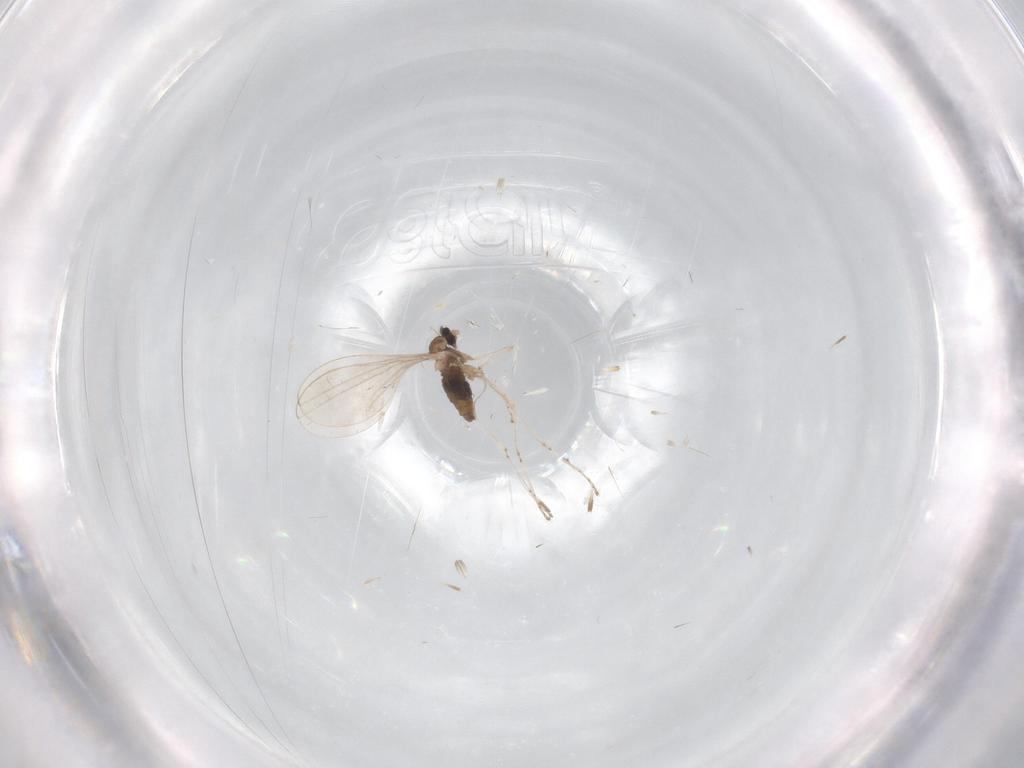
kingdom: Animalia
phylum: Arthropoda
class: Insecta
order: Diptera
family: Cecidomyiidae
